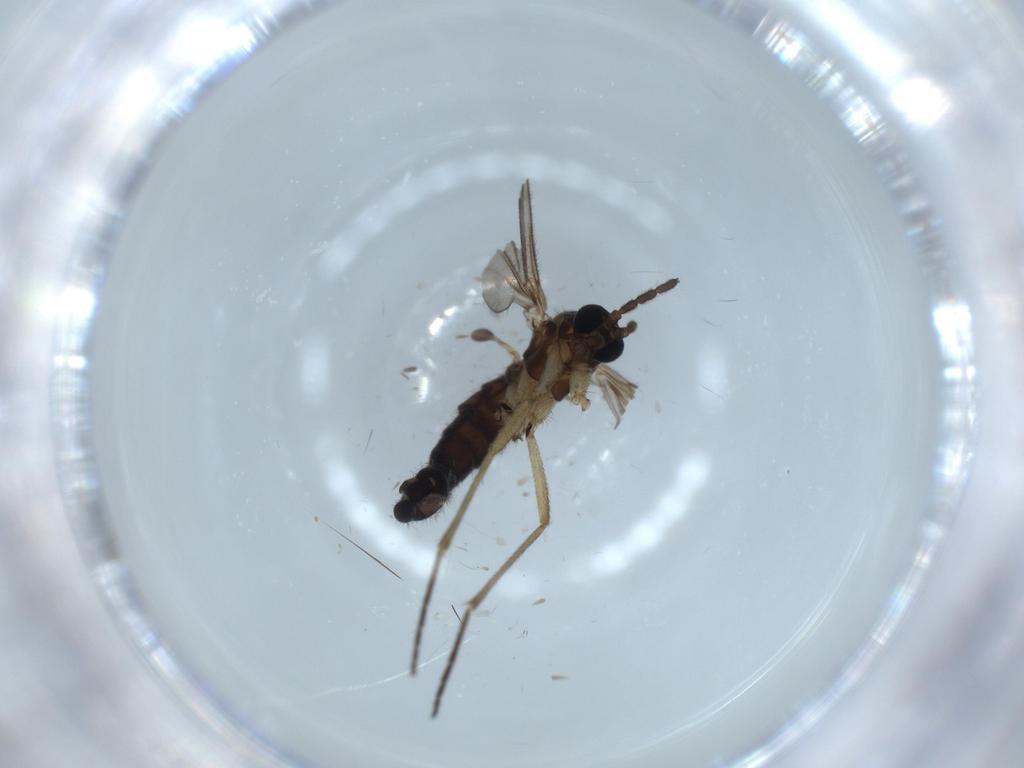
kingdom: Animalia
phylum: Arthropoda
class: Insecta
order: Diptera
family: Sciaridae
